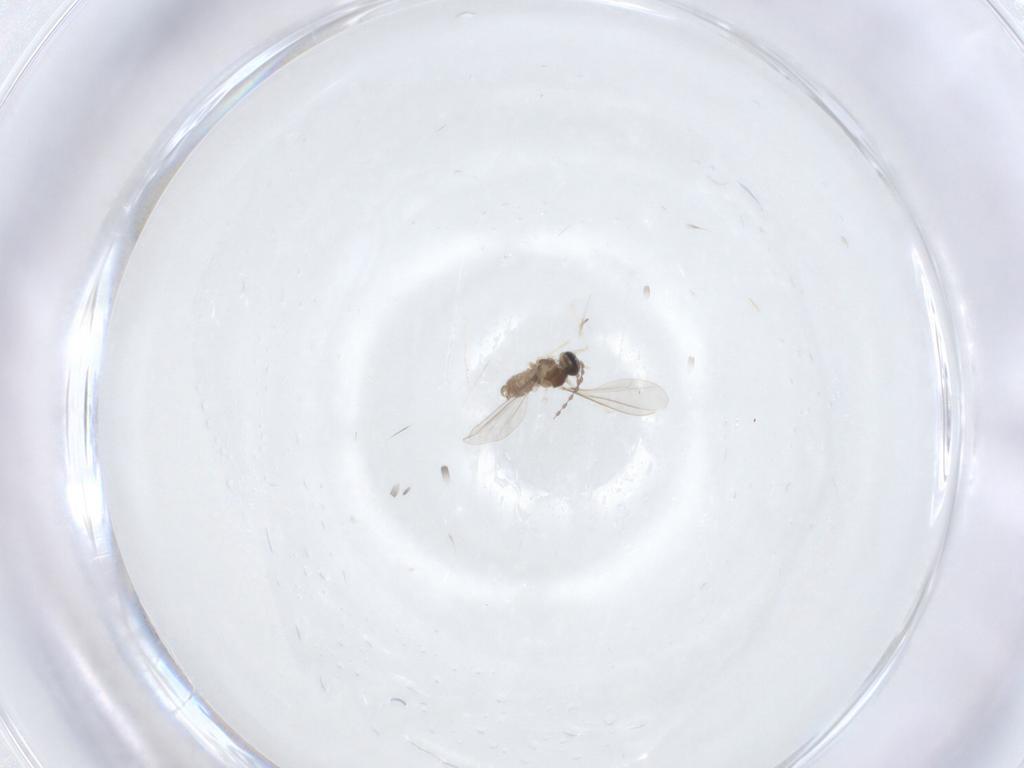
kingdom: Animalia
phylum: Arthropoda
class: Insecta
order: Diptera
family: Cecidomyiidae
